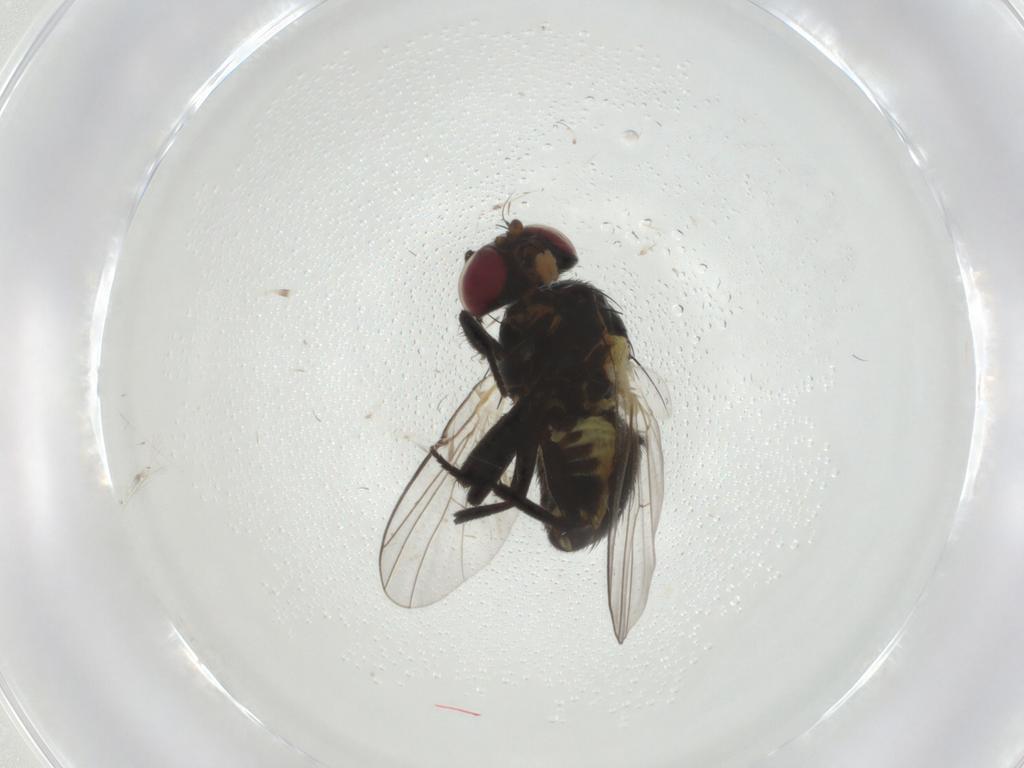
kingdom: Animalia
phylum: Arthropoda
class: Insecta
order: Diptera
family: Agromyzidae
